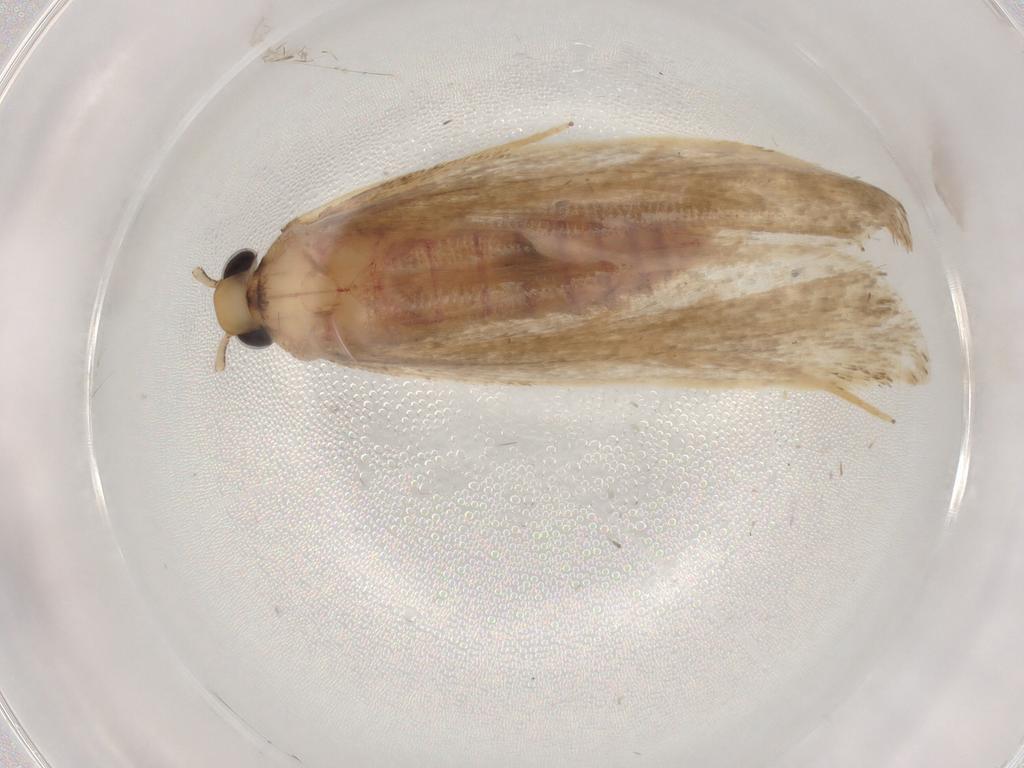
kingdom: Animalia
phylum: Arthropoda
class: Insecta
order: Lepidoptera
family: Lecithoceridae
